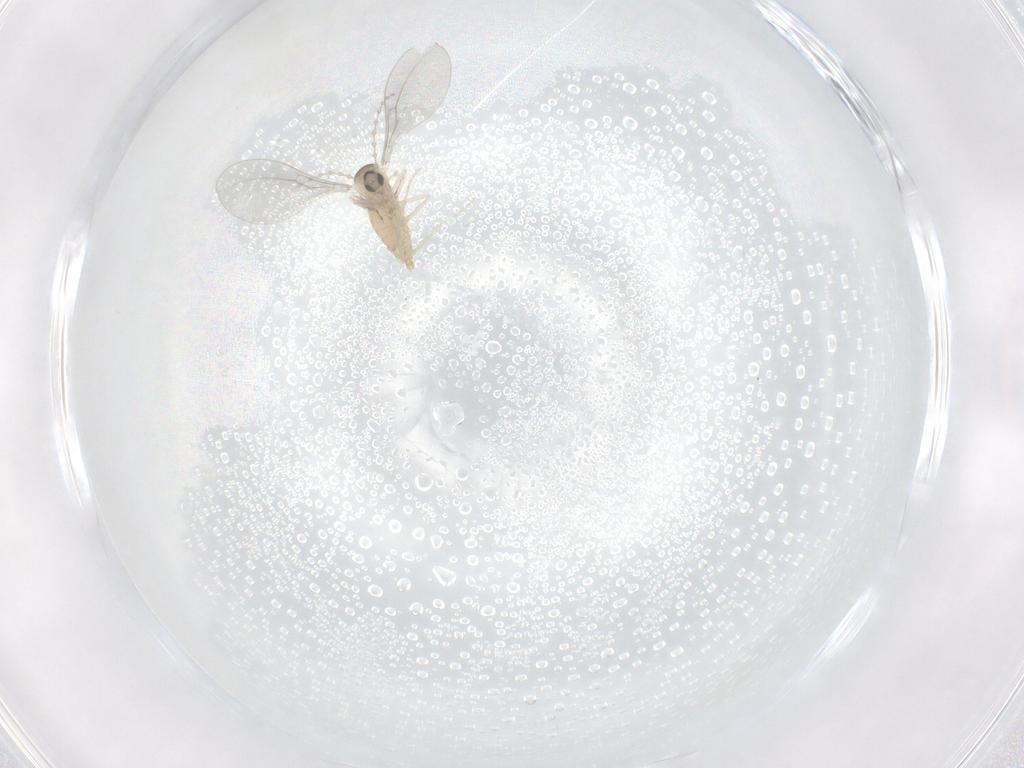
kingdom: Animalia
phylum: Arthropoda
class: Insecta
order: Diptera
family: Cecidomyiidae
